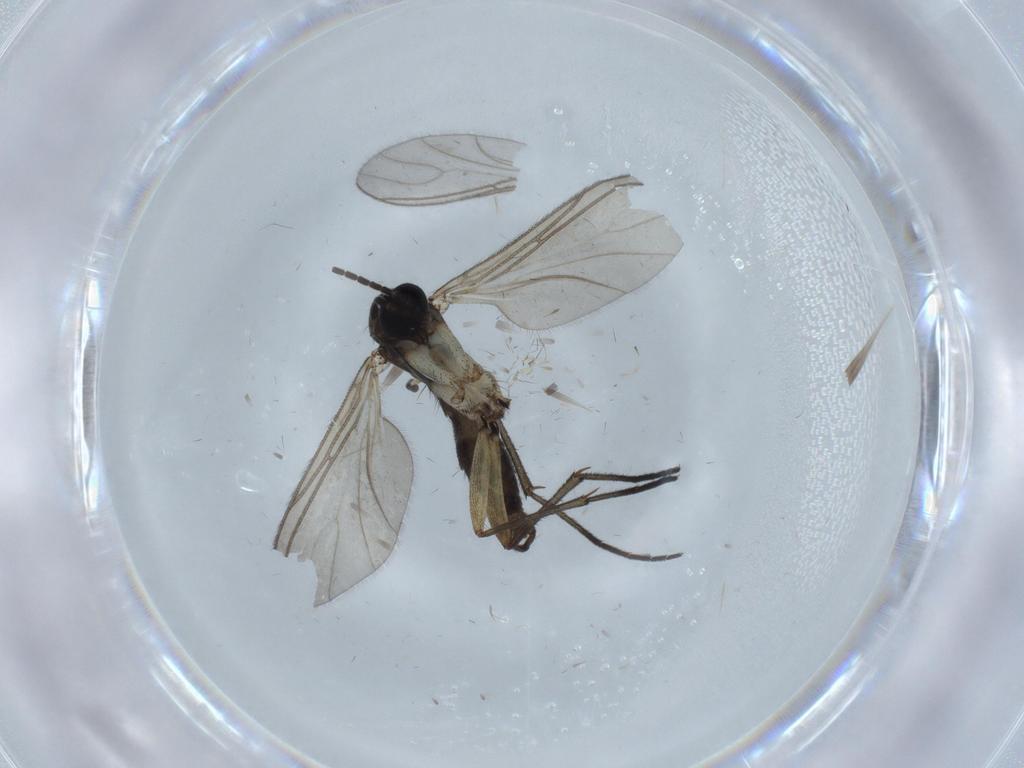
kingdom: Animalia
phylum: Arthropoda
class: Insecta
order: Diptera
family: Sciaridae
